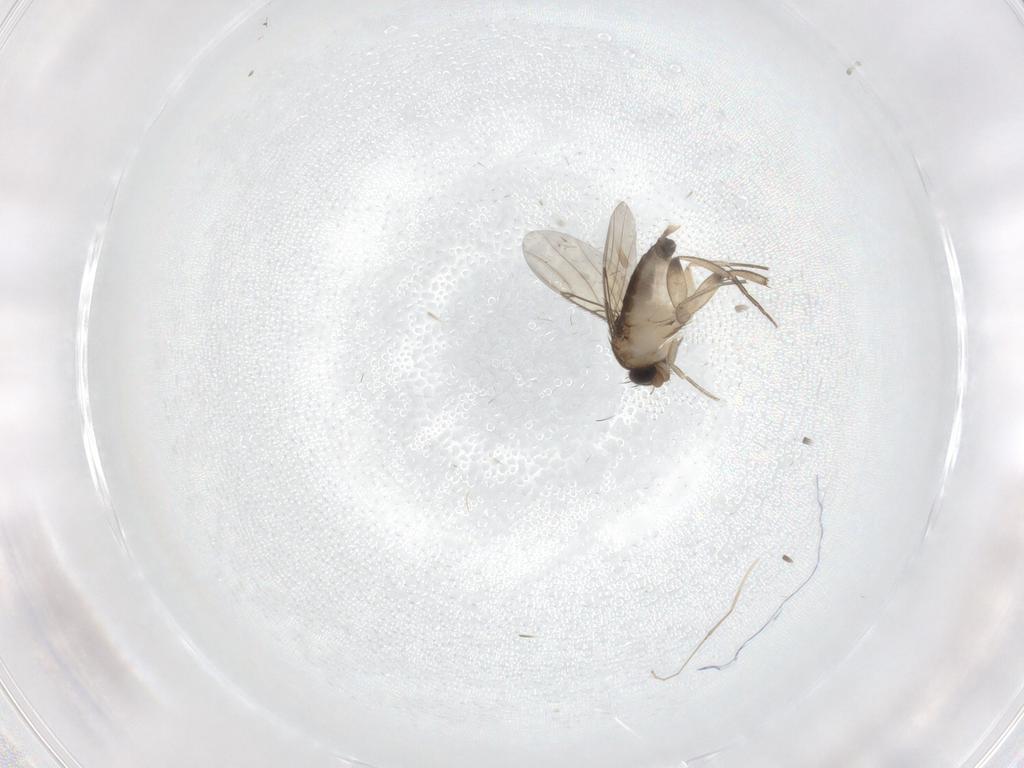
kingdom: Animalia
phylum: Arthropoda
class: Insecta
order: Diptera
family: Phoridae
